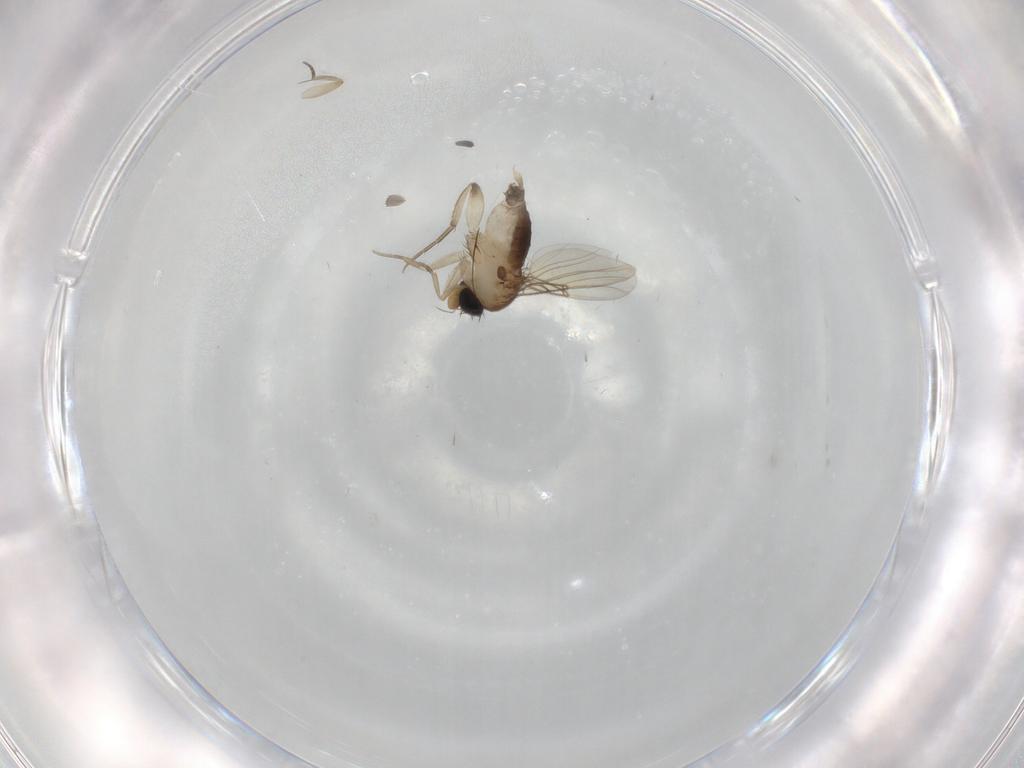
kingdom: Animalia
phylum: Arthropoda
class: Insecta
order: Diptera
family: Phoridae
